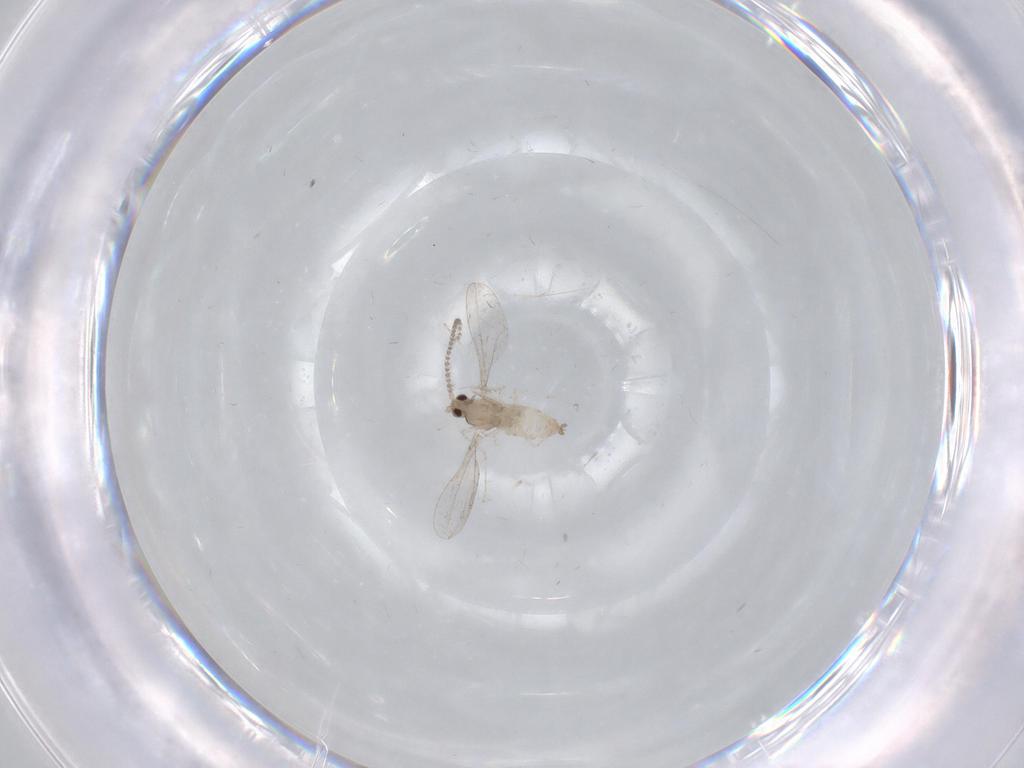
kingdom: Animalia
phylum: Arthropoda
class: Insecta
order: Diptera
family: Cecidomyiidae
